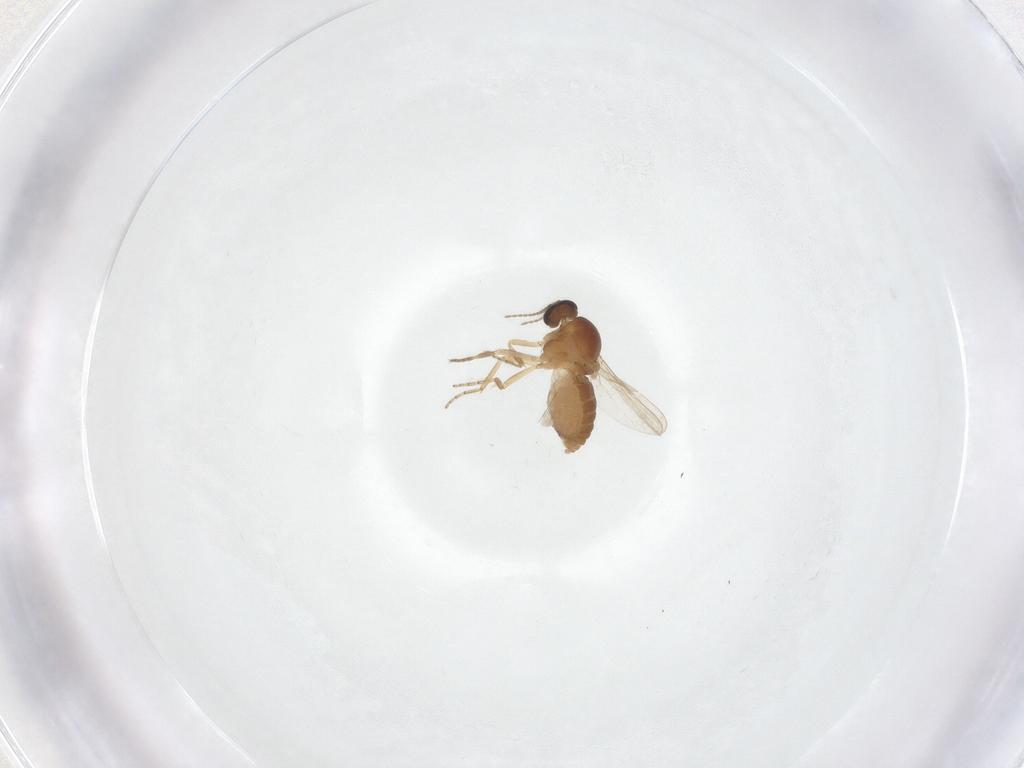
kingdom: Animalia
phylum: Arthropoda
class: Insecta
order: Diptera
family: Ceratopogonidae
